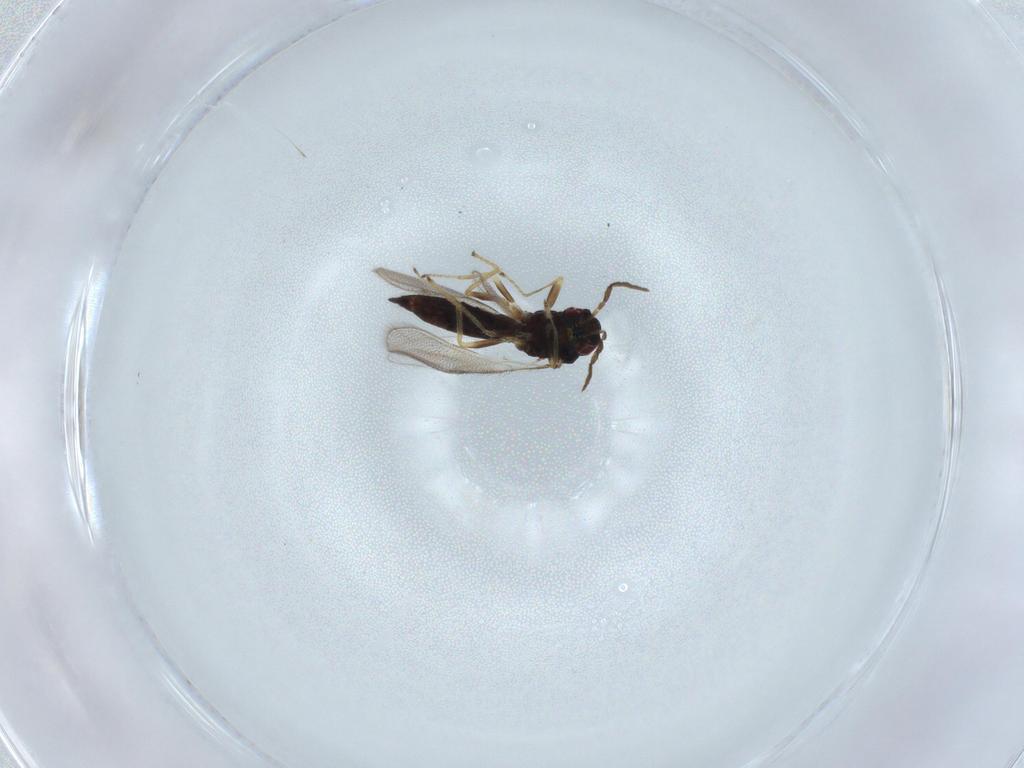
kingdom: Animalia
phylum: Arthropoda
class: Insecta
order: Hymenoptera
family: Eulophidae
